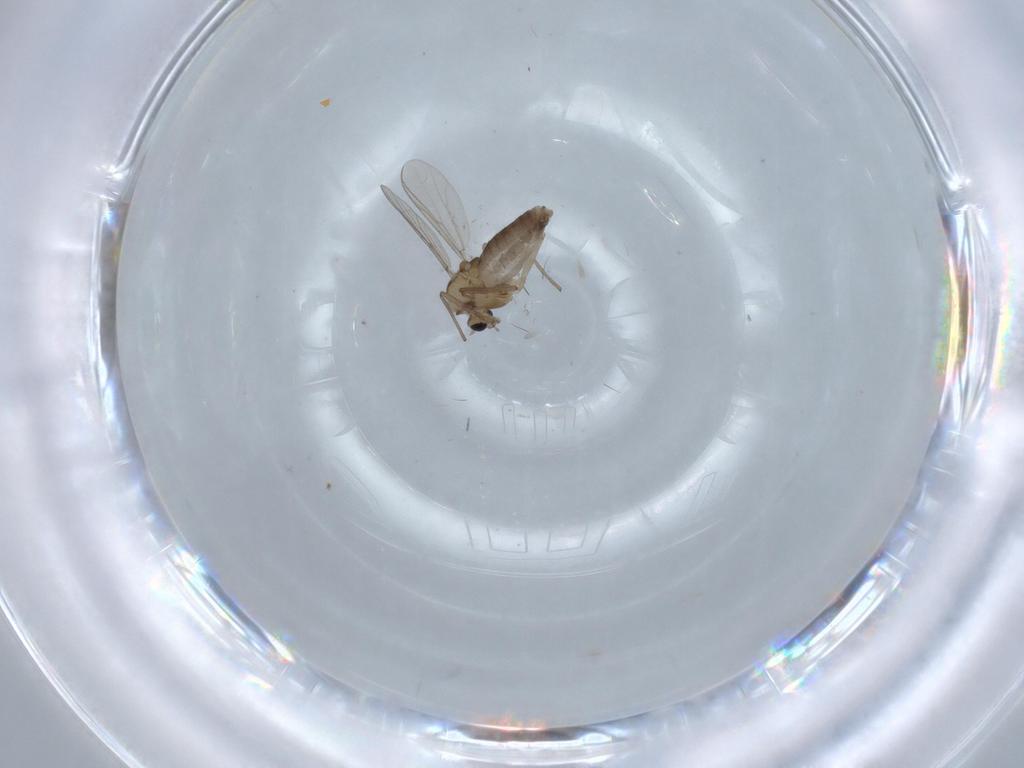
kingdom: Animalia
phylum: Arthropoda
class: Insecta
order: Diptera
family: Chironomidae
